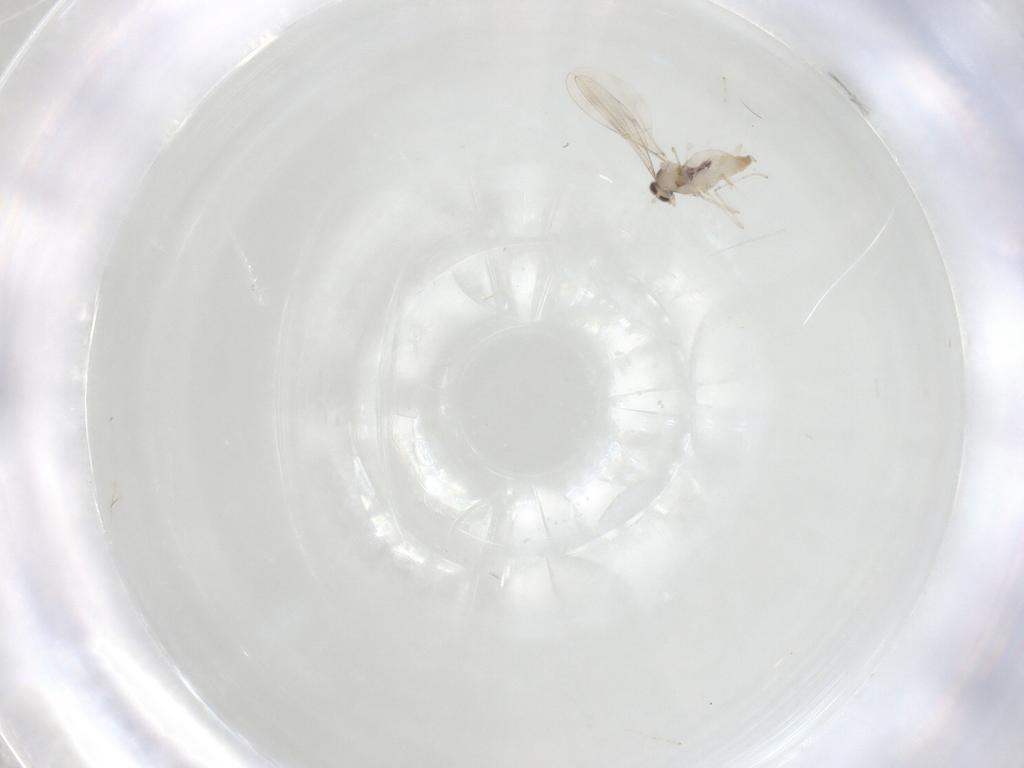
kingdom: Animalia
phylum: Arthropoda
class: Insecta
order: Diptera
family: Cecidomyiidae
